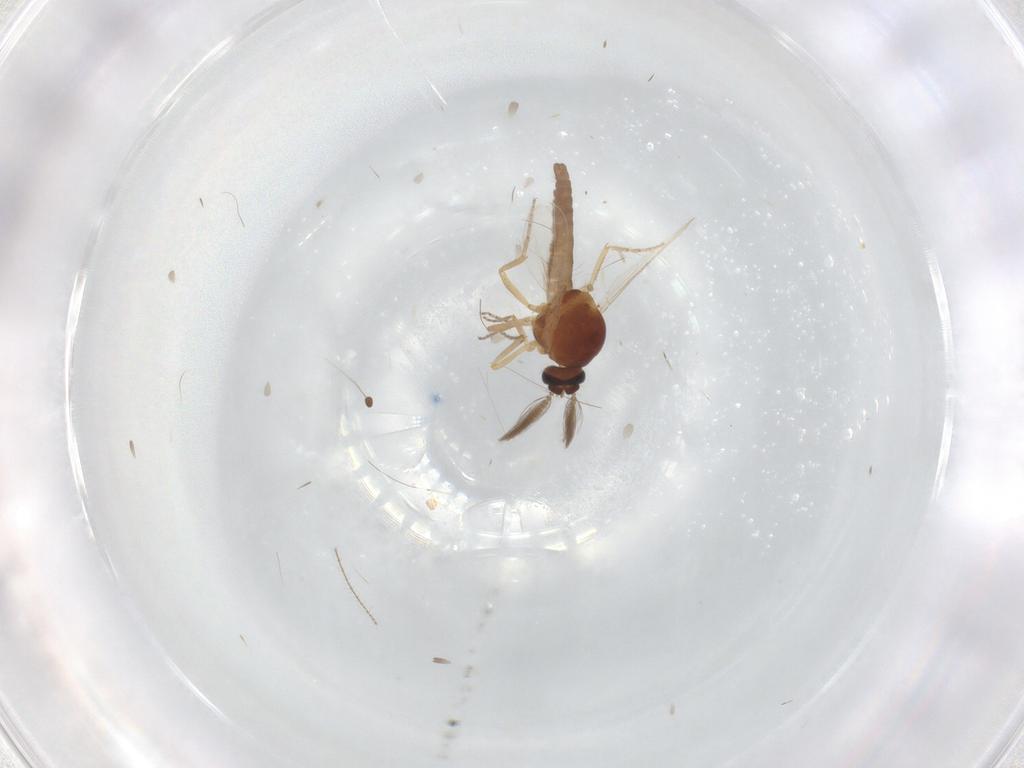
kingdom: Animalia
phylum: Arthropoda
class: Insecta
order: Diptera
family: Ceratopogonidae
